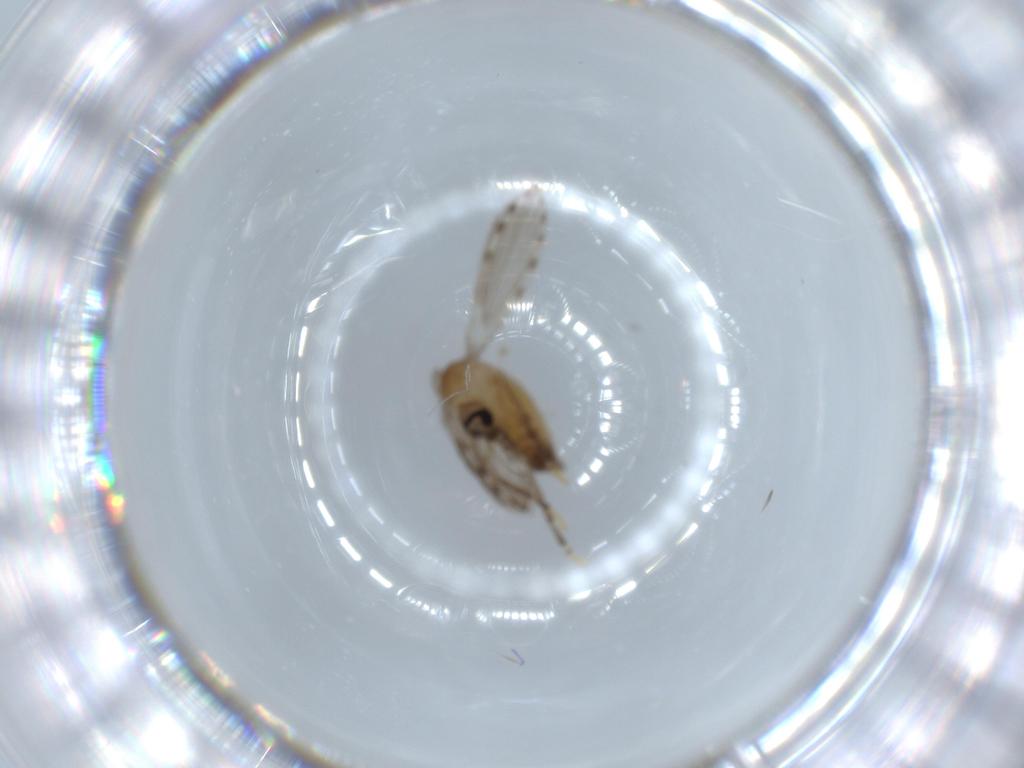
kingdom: Animalia
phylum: Arthropoda
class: Insecta
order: Diptera
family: Psychodidae
